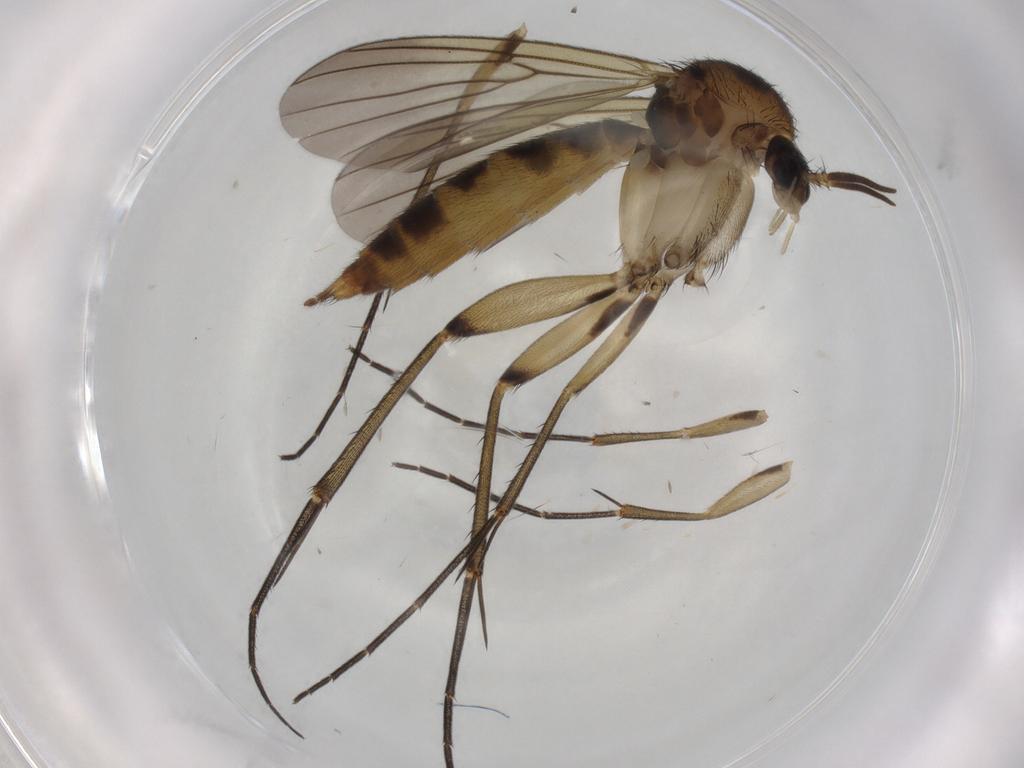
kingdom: Animalia
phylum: Arthropoda
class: Insecta
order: Diptera
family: Mycetophilidae
